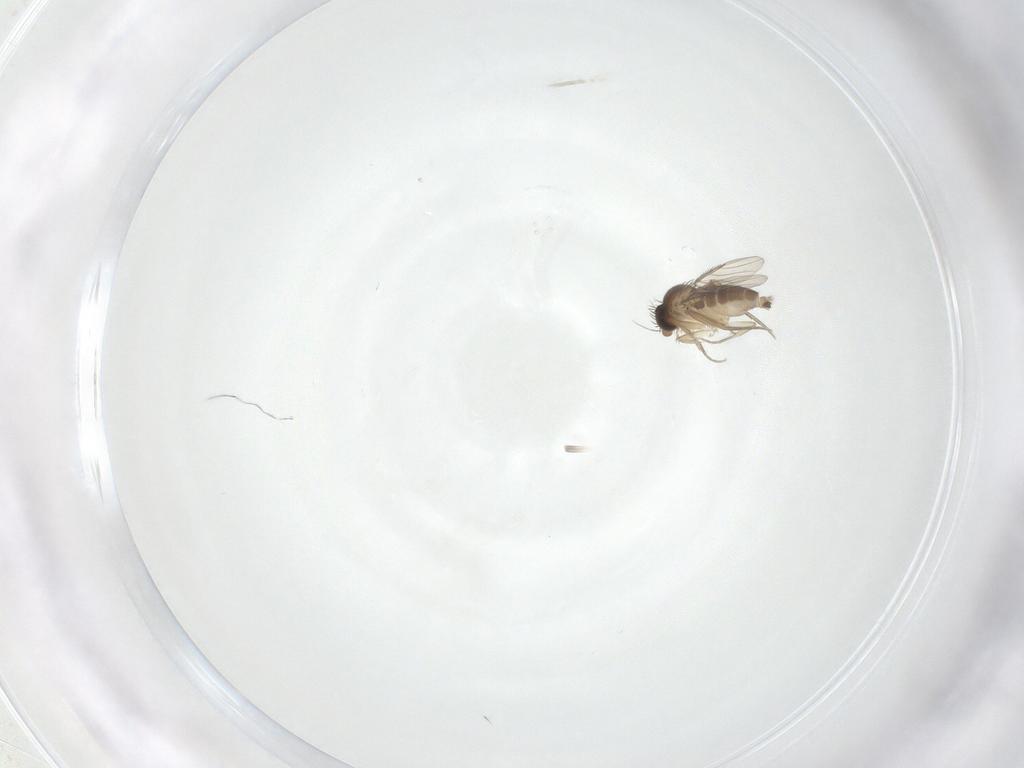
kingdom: Animalia
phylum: Arthropoda
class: Insecta
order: Diptera
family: Phoridae
